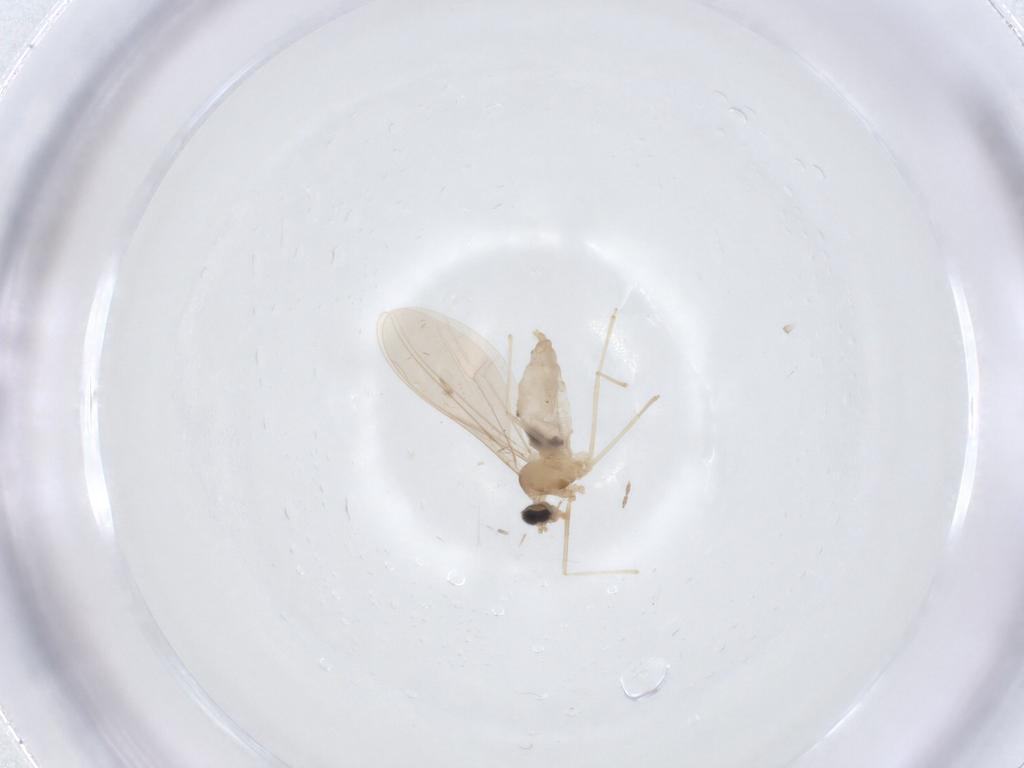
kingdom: Animalia
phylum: Arthropoda
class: Insecta
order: Diptera
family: Cecidomyiidae
